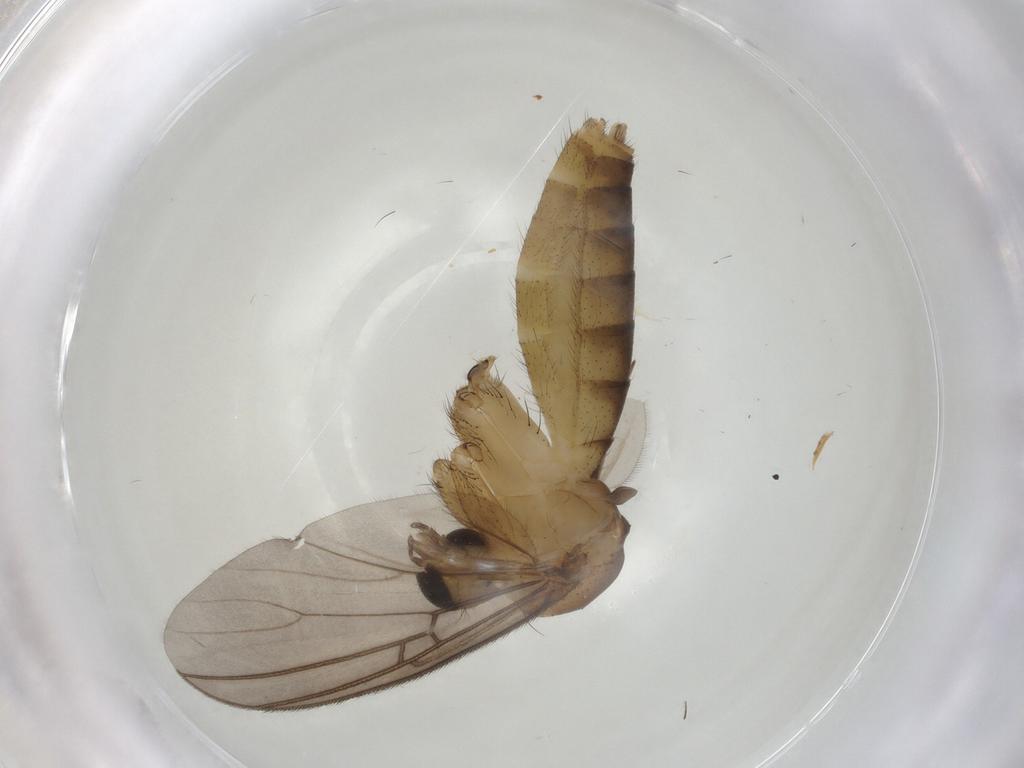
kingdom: Animalia
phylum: Arthropoda
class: Insecta
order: Diptera
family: Mycetophilidae
